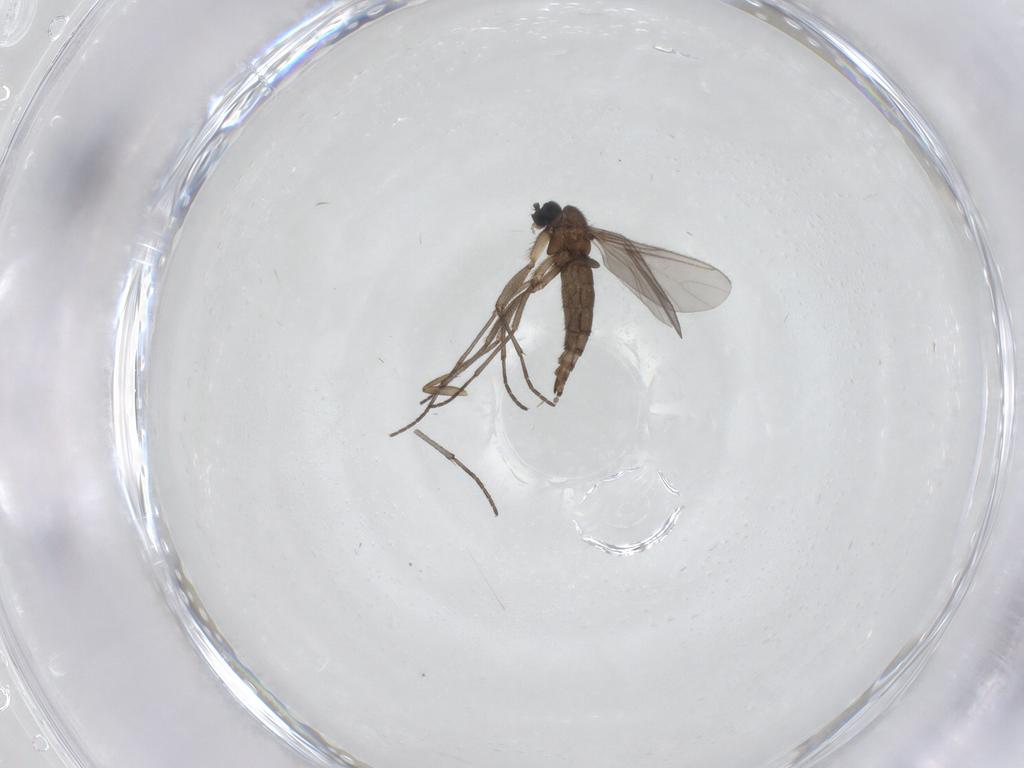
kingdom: Animalia
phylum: Arthropoda
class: Insecta
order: Diptera
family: Sciaridae
